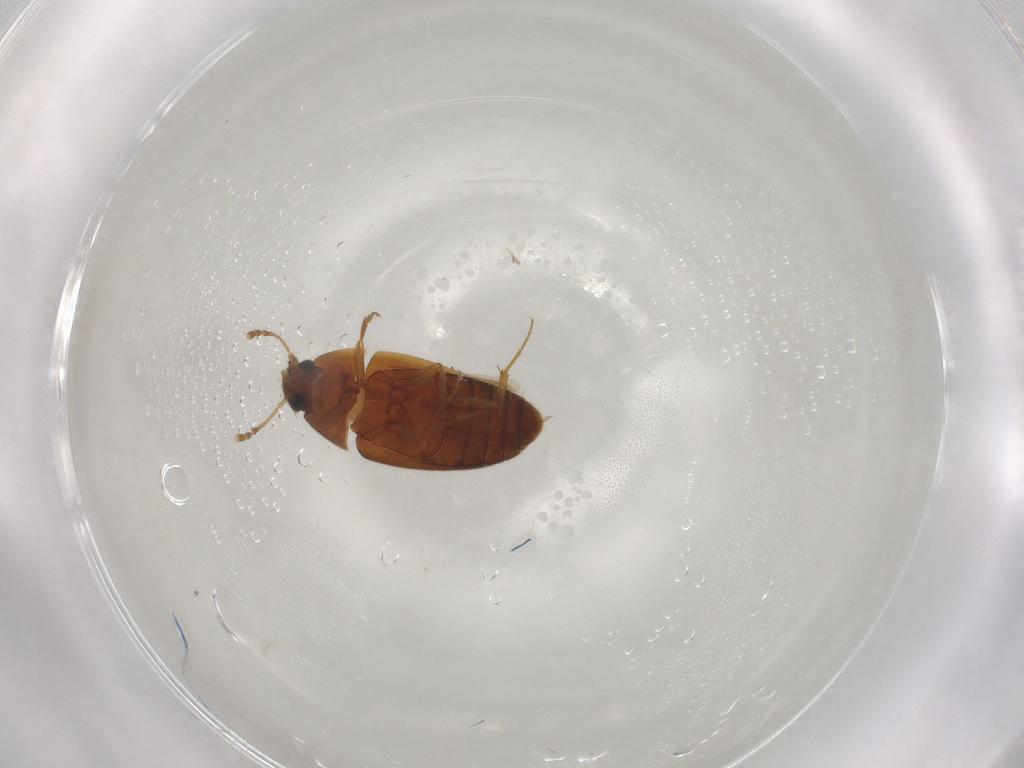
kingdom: Animalia
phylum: Arthropoda
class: Insecta
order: Coleoptera
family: Mycetophagidae
